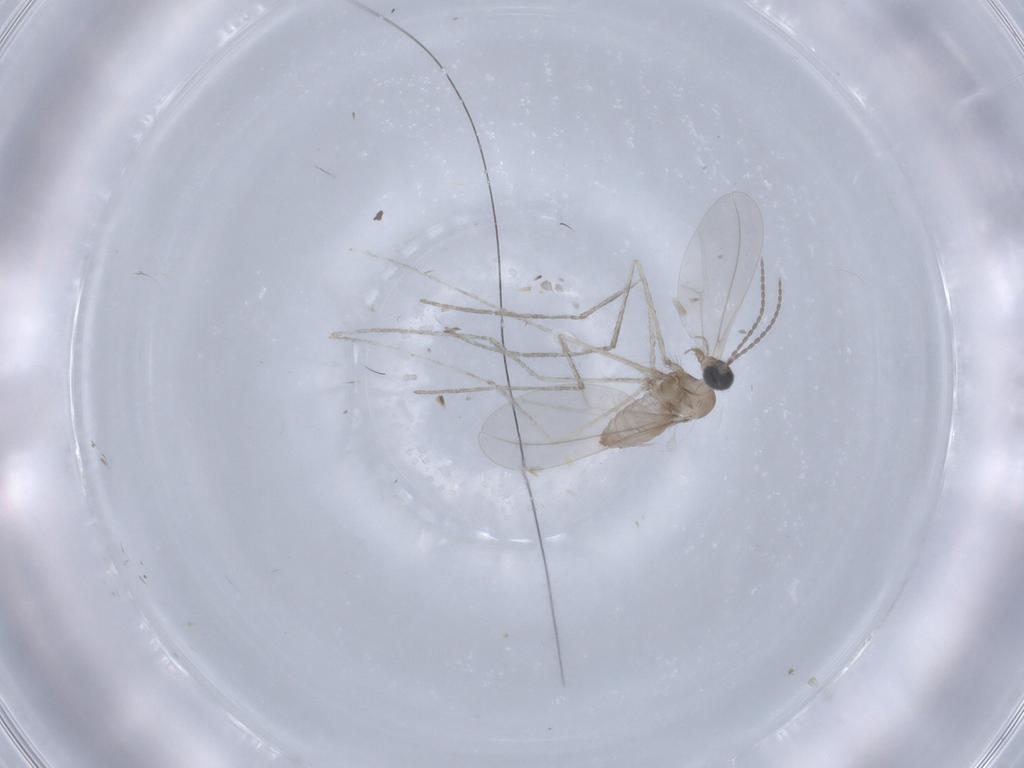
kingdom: Animalia
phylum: Arthropoda
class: Insecta
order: Diptera
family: Cecidomyiidae
